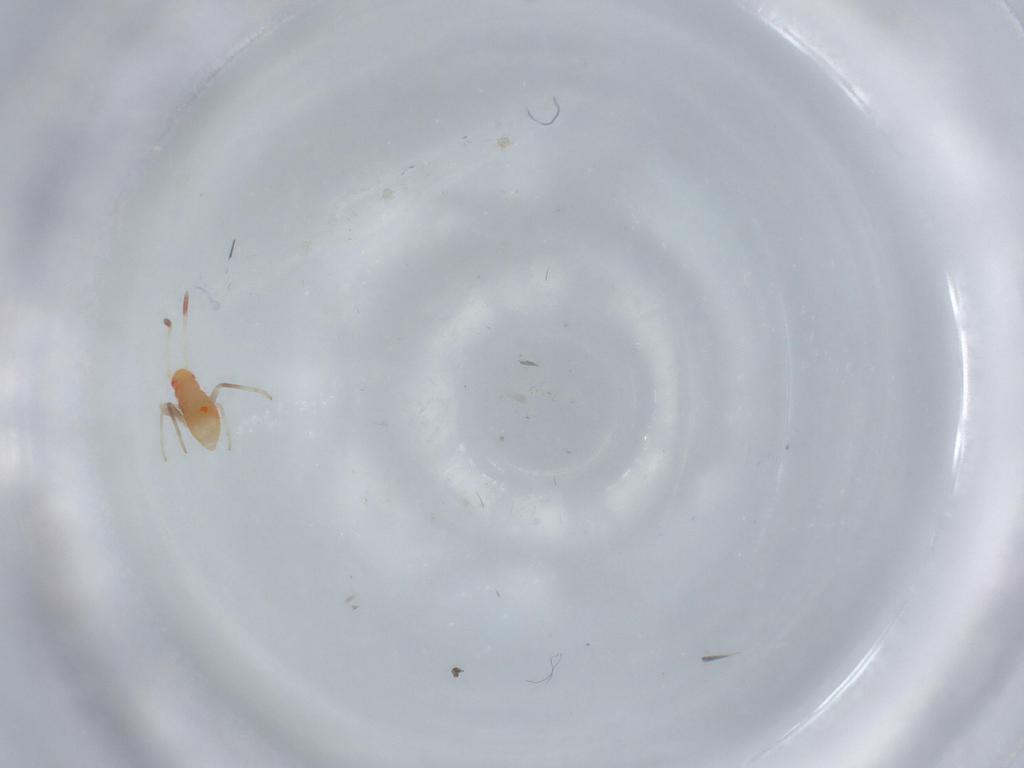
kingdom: Animalia
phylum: Arthropoda
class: Insecta
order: Hemiptera
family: Miridae
